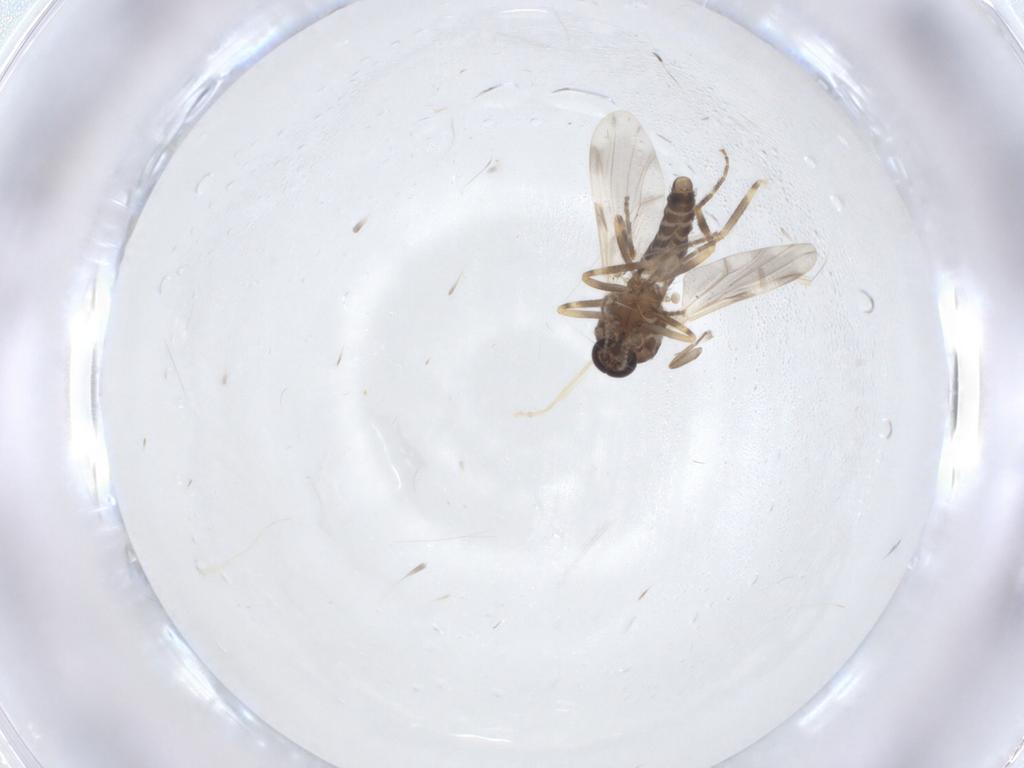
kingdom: Animalia
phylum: Arthropoda
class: Insecta
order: Diptera
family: Ceratopogonidae
